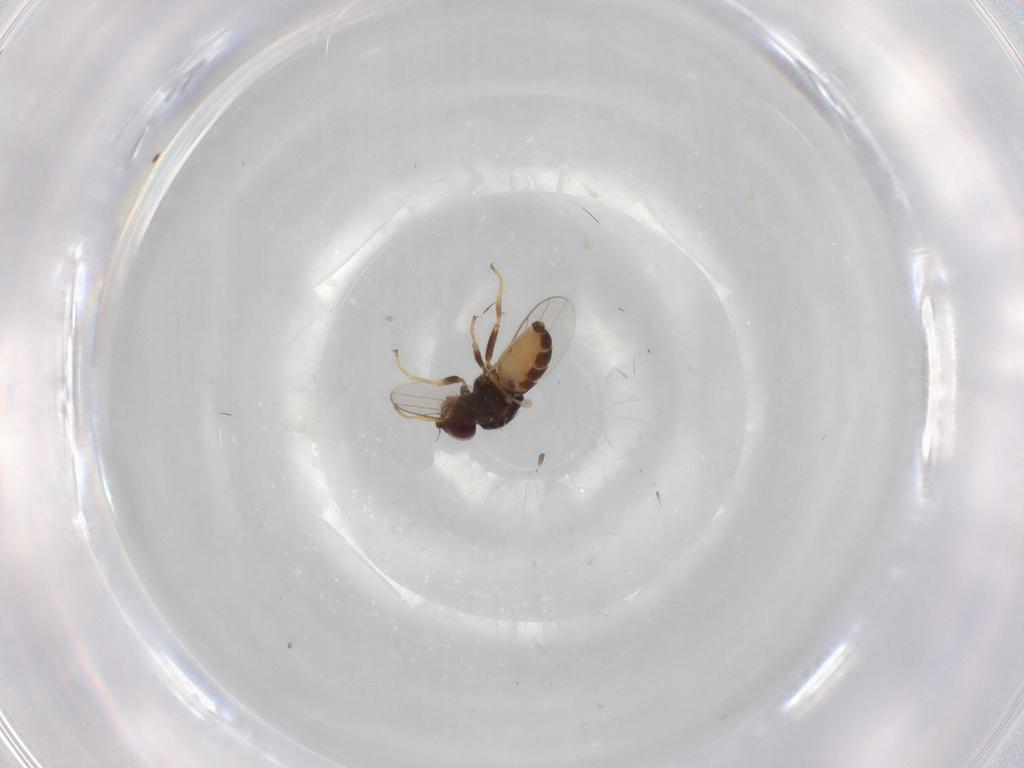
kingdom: Animalia
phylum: Arthropoda
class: Insecta
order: Diptera
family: Chloropidae
